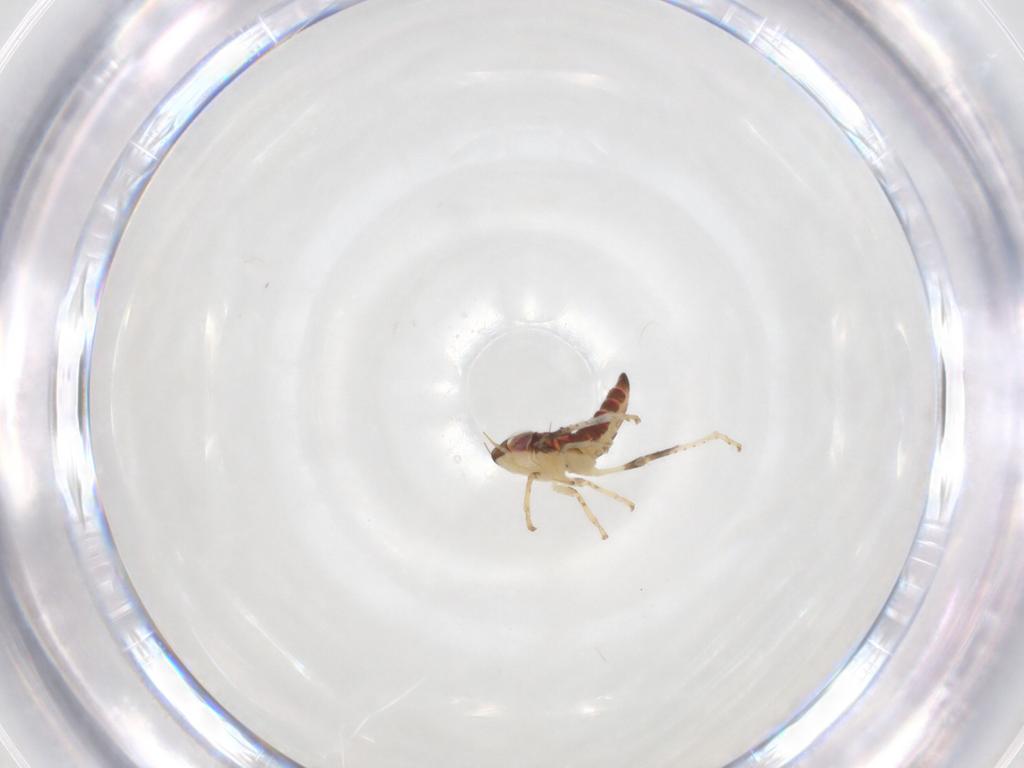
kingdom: Animalia
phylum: Arthropoda
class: Insecta
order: Hemiptera
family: Cicadellidae
